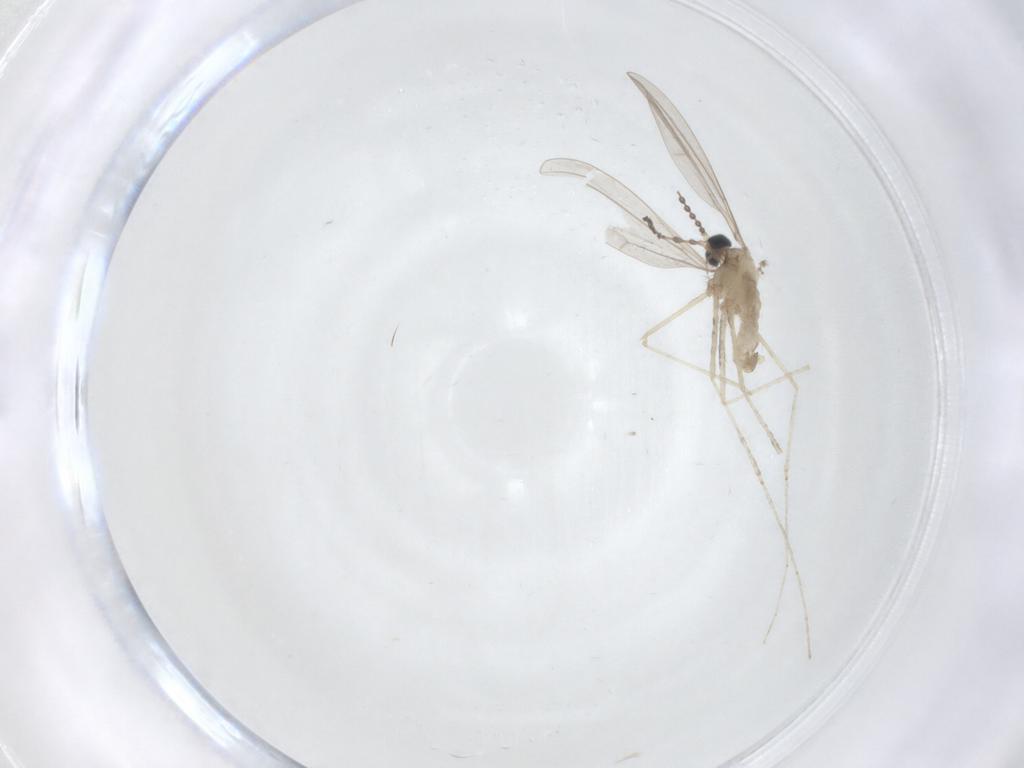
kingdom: Animalia
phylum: Arthropoda
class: Insecta
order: Diptera
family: Cecidomyiidae
